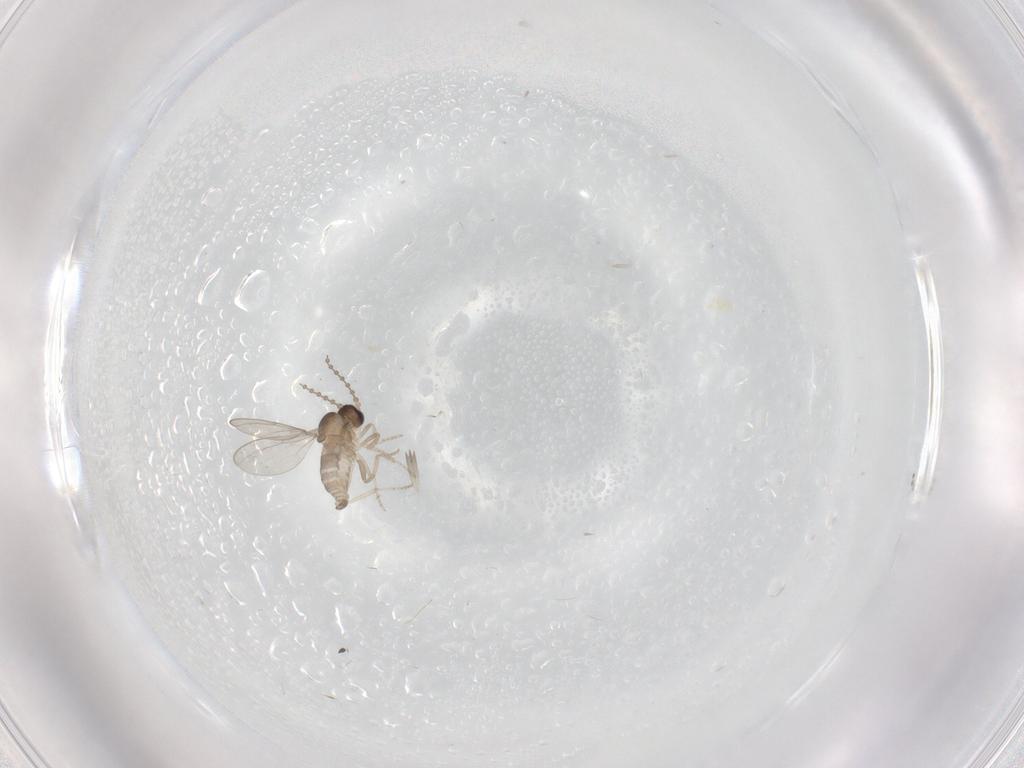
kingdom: Animalia
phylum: Arthropoda
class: Insecta
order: Diptera
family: Cecidomyiidae
